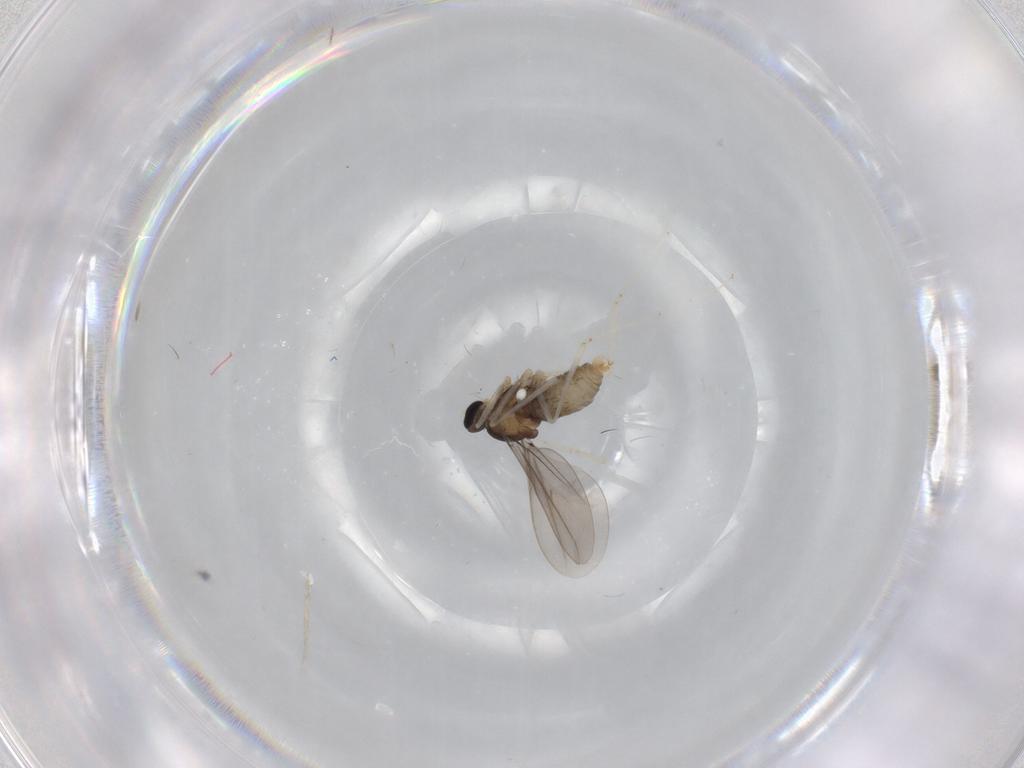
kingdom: Animalia
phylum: Arthropoda
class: Insecta
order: Diptera
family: Cecidomyiidae
